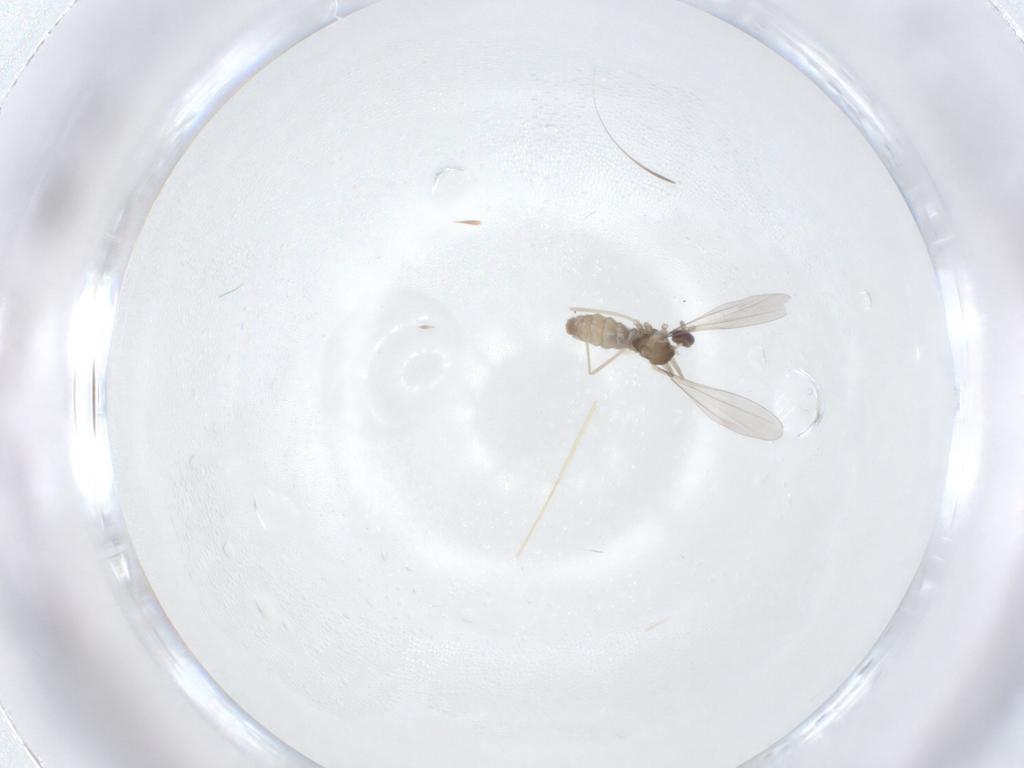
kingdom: Animalia
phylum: Arthropoda
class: Insecta
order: Diptera
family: Cecidomyiidae
